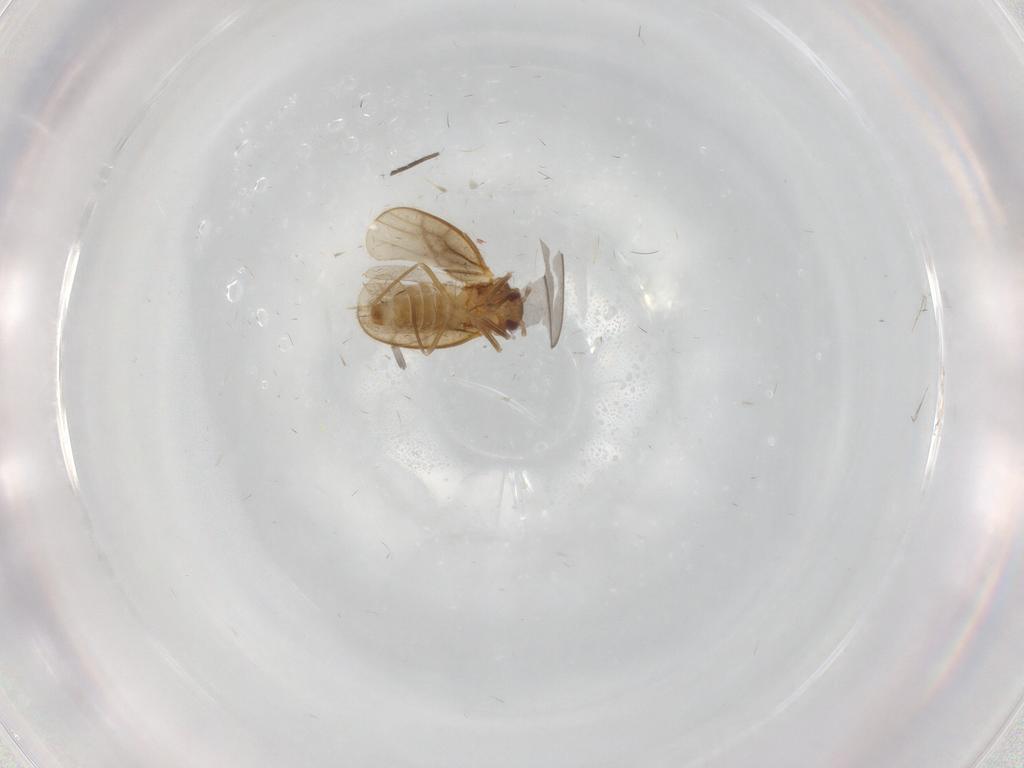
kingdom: Animalia
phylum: Arthropoda
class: Insecta
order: Hemiptera
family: Schizopteridae
